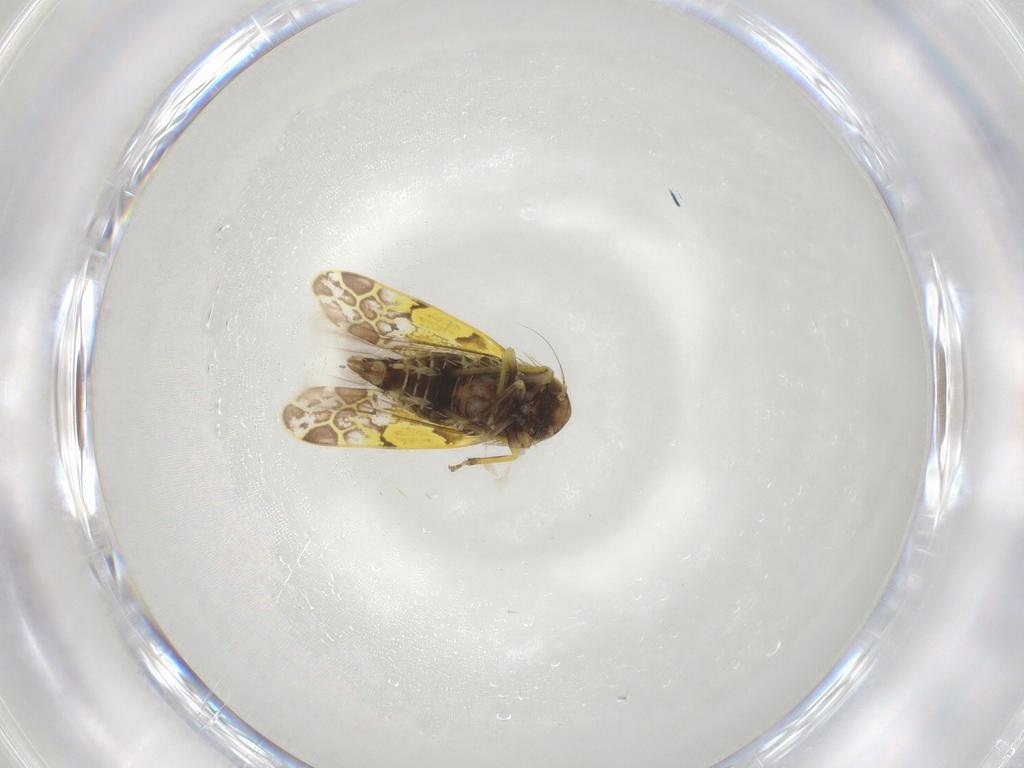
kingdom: Animalia
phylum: Arthropoda
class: Insecta
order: Hemiptera
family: Cicadellidae
